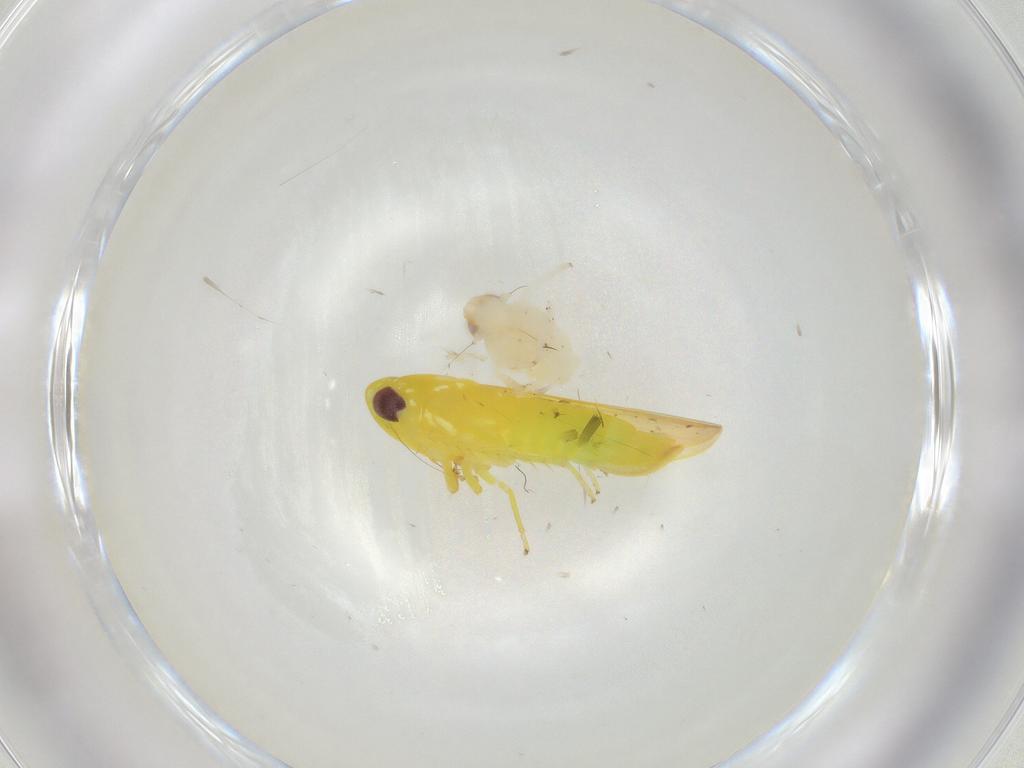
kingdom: Animalia
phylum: Arthropoda
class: Insecta
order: Hemiptera
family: Nogodinidae
